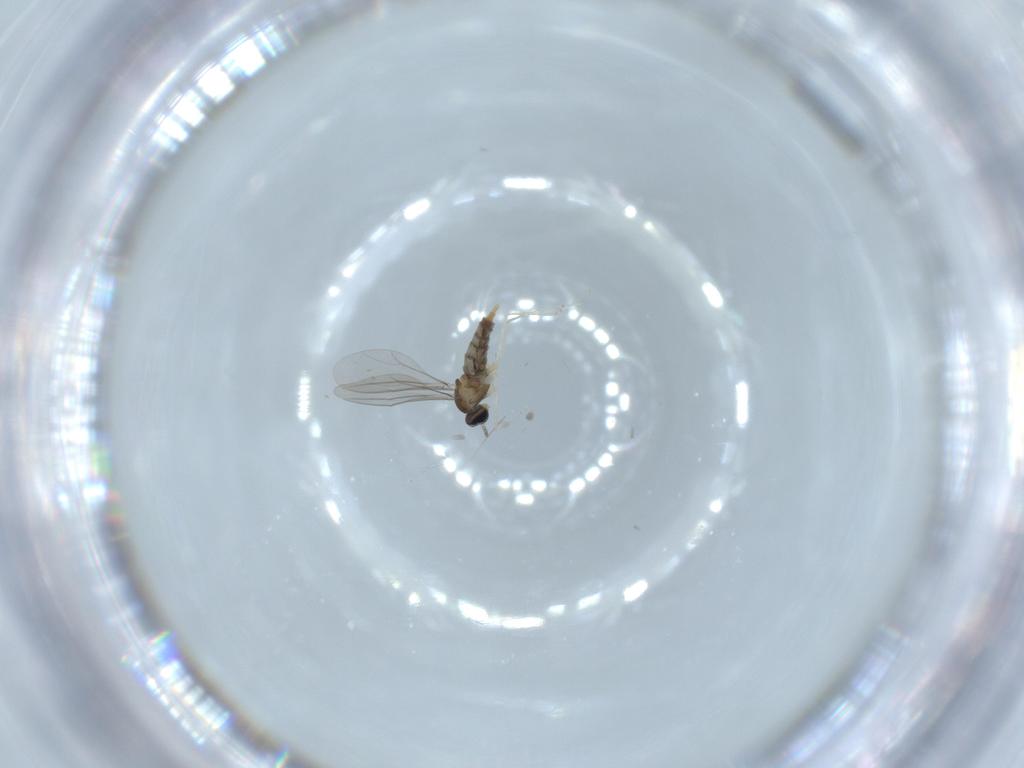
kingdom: Animalia
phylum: Arthropoda
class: Insecta
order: Diptera
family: Cecidomyiidae
